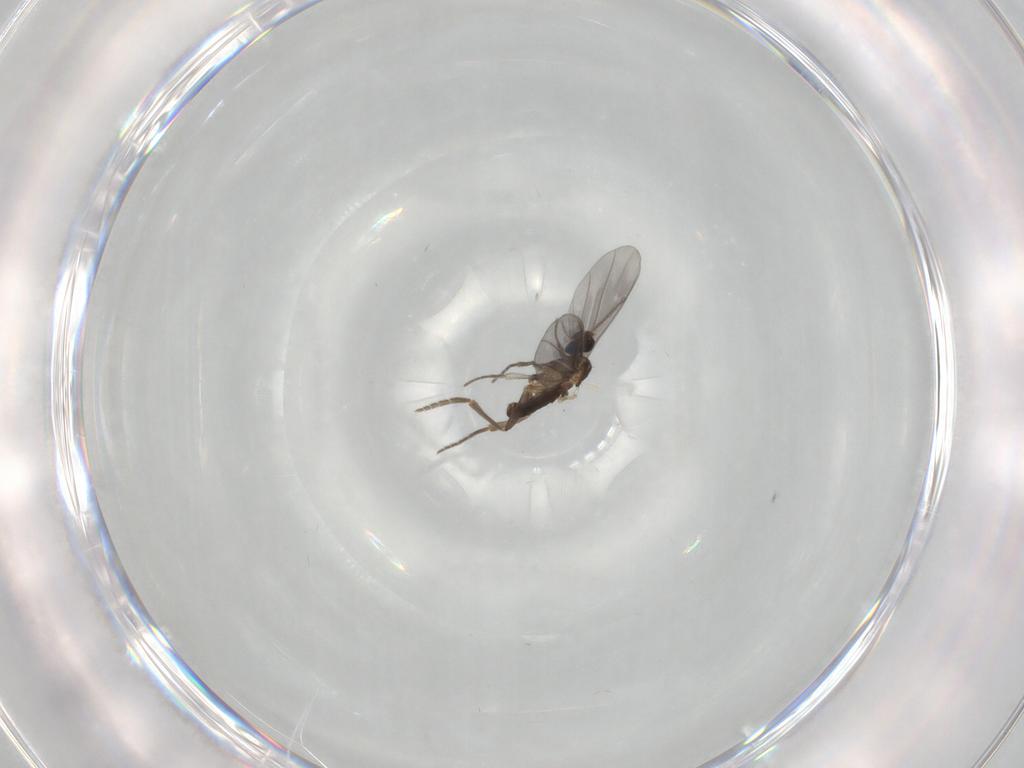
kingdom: Animalia
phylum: Arthropoda
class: Insecta
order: Diptera
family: Phoridae
